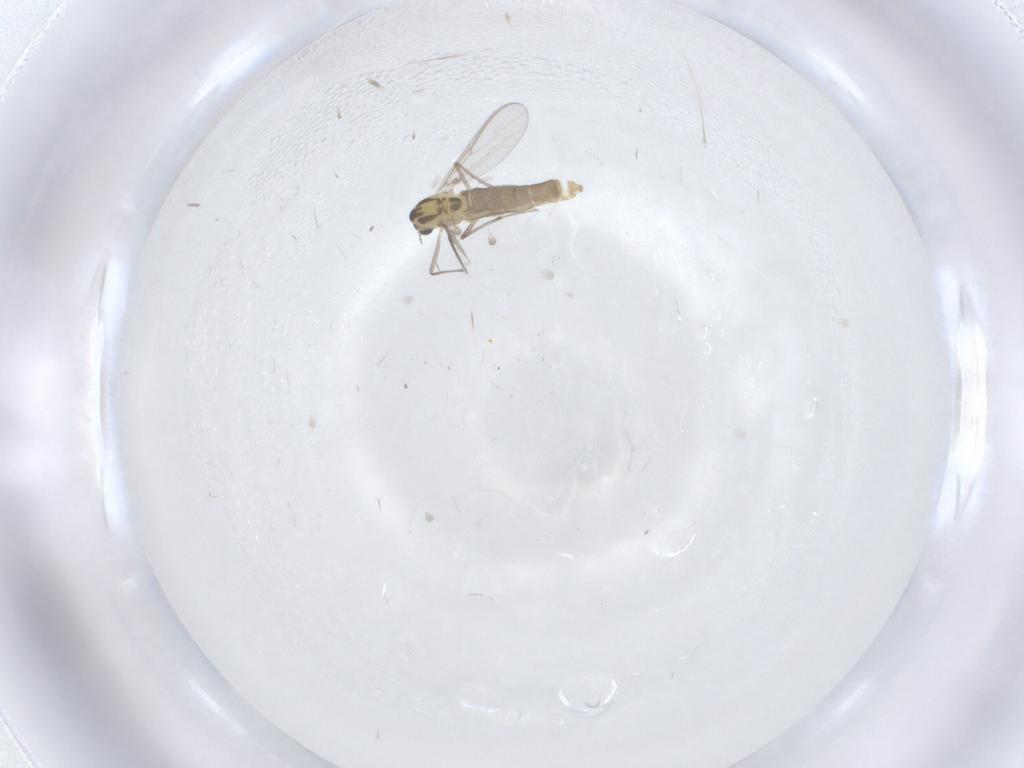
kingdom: Animalia
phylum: Arthropoda
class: Insecta
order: Diptera
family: Chironomidae
